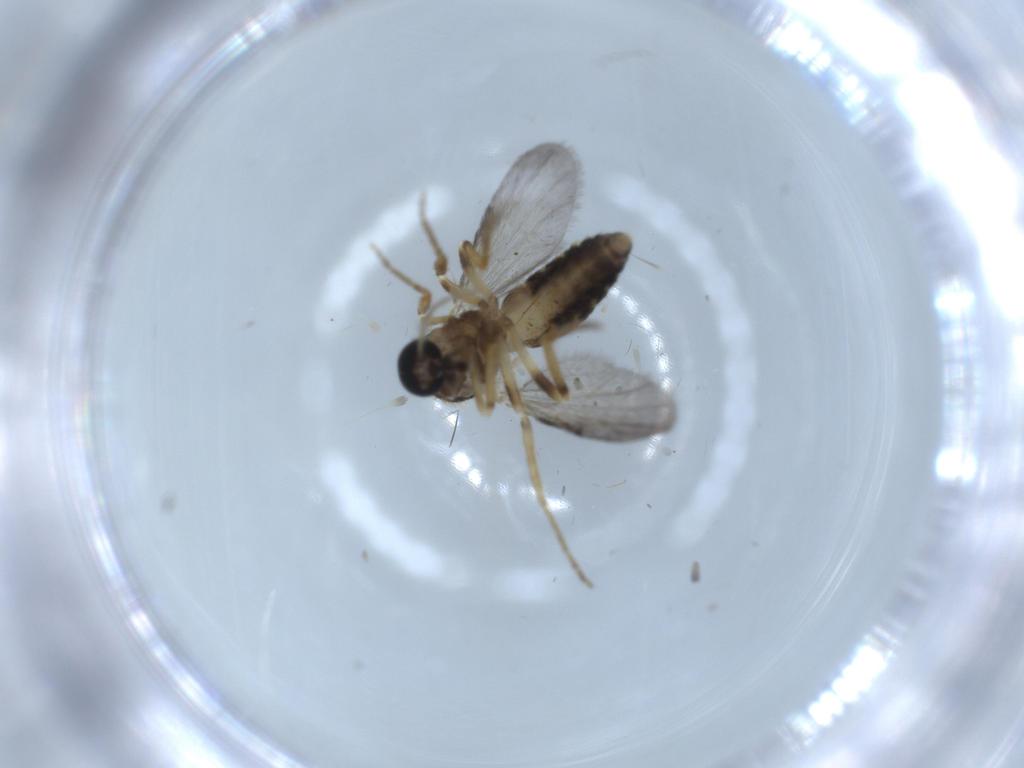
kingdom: Animalia
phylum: Arthropoda
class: Insecta
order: Diptera
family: Ceratopogonidae
